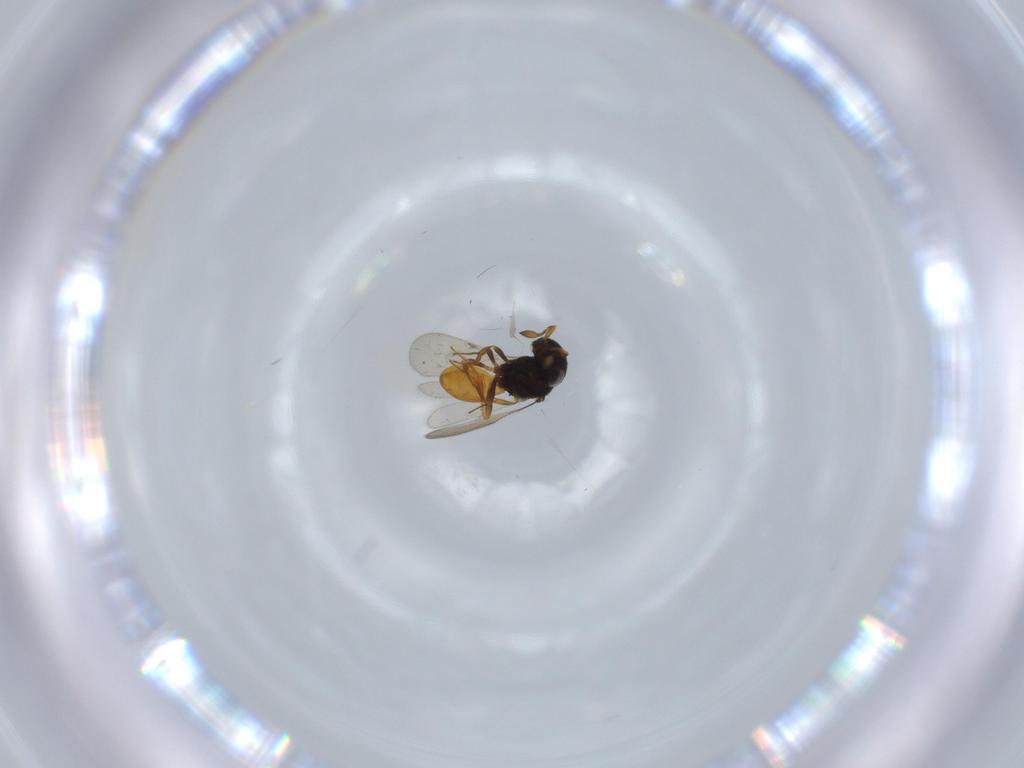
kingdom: Animalia
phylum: Arthropoda
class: Insecta
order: Hymenoptera
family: Scelionidae
